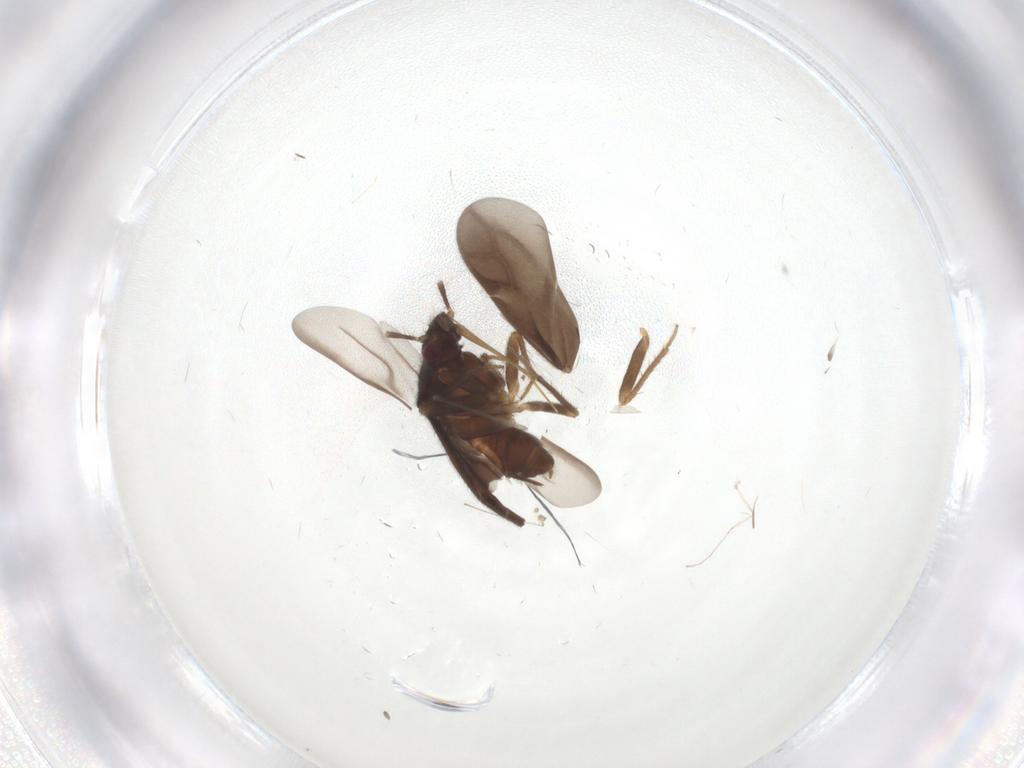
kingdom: Animalia
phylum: Arthropoda
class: Insecta
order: Hemiptera
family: Ceratocombidae
